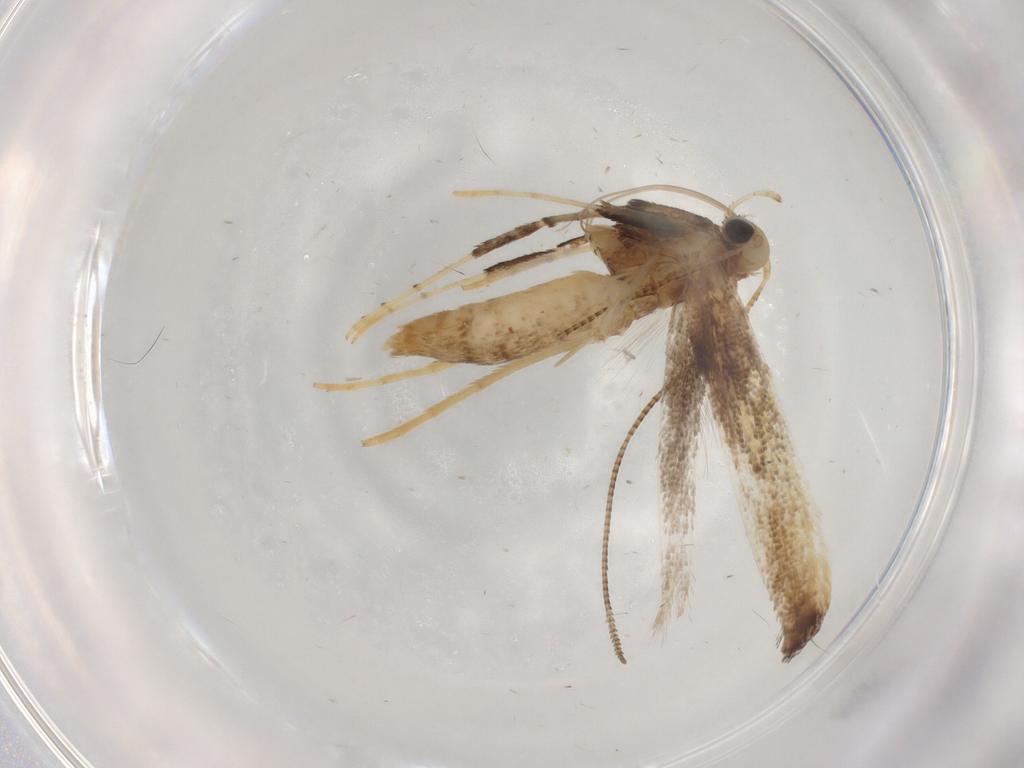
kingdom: Animalia
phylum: Arthropoda
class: Insecta
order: Lepidoptera
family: Gracillariidae
